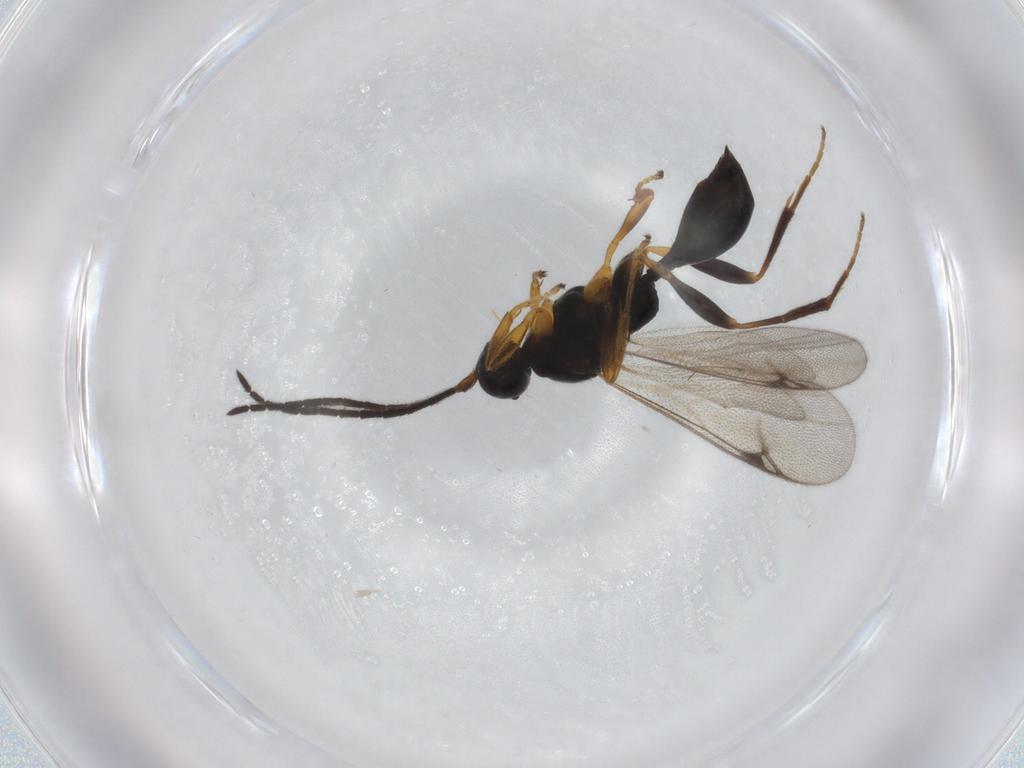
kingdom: Animalia
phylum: Arthropoda
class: Insecta
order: Hymenoptera
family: Proctotrupidae
